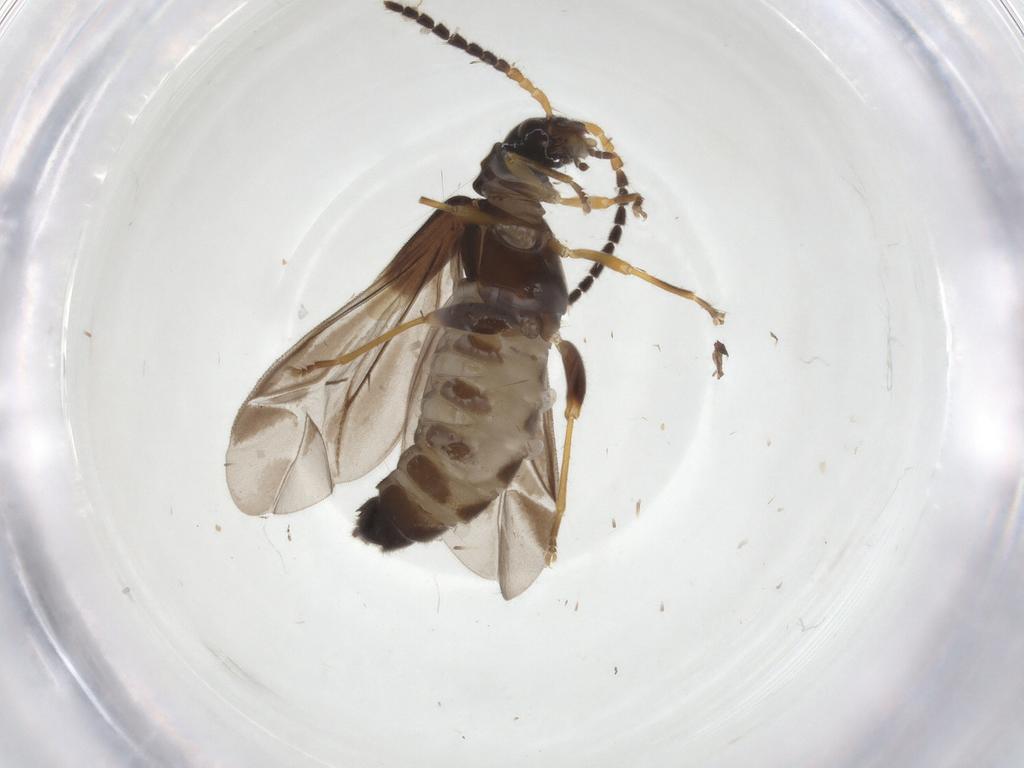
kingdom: Animalia
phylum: Arthropoda
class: Insecta
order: Coleoptera
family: Cantharidae
